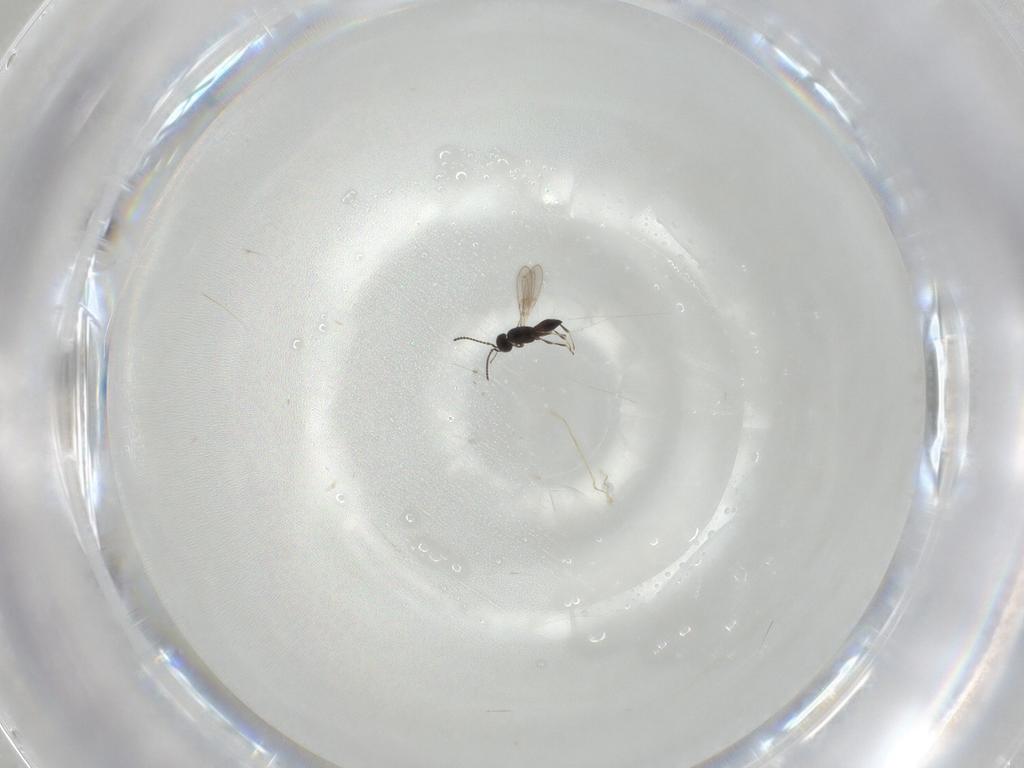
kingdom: Animalia
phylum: Arthropoda
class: Insecta
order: Hymenoptera
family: Scelionidae
